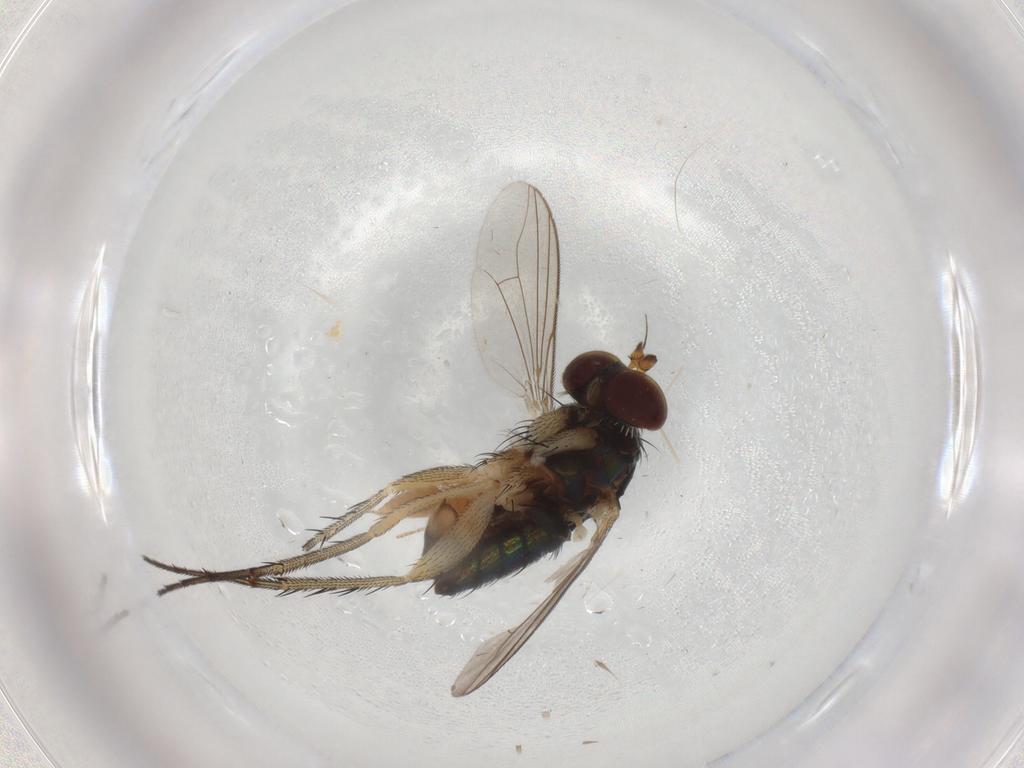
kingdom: Animalia
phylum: Arthropoda
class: Insecta
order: Diptera
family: Dolichopodidae
